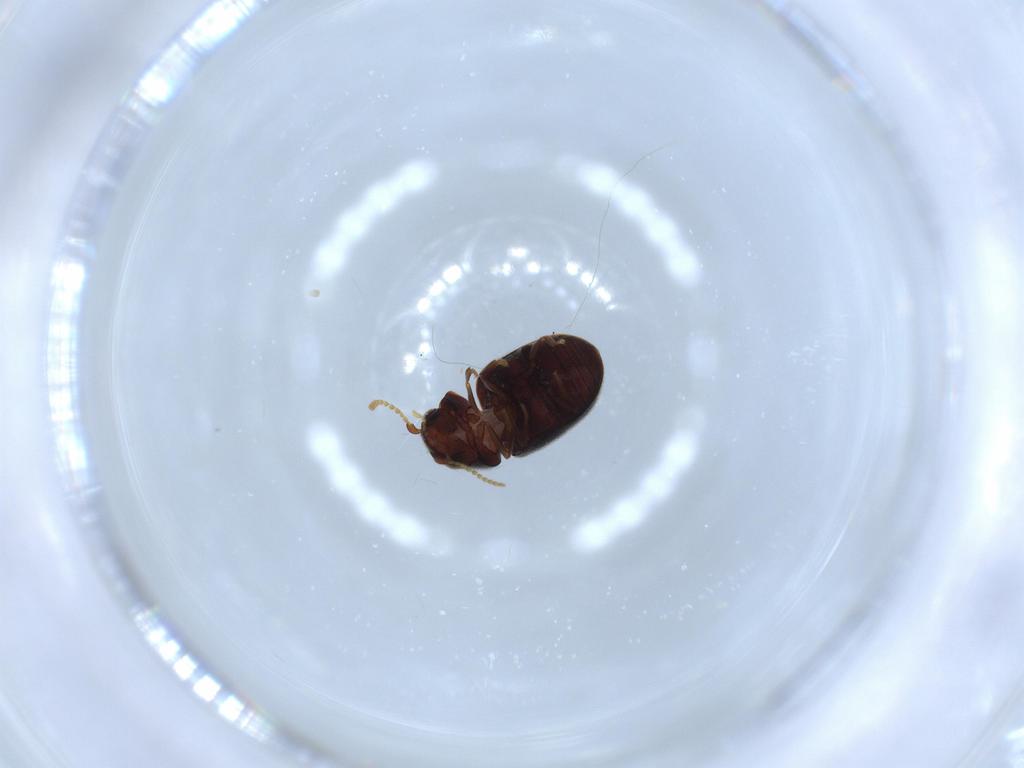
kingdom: Animalia
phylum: Arthropoda
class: Insecta
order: Coleoptera
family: Ptinidae
